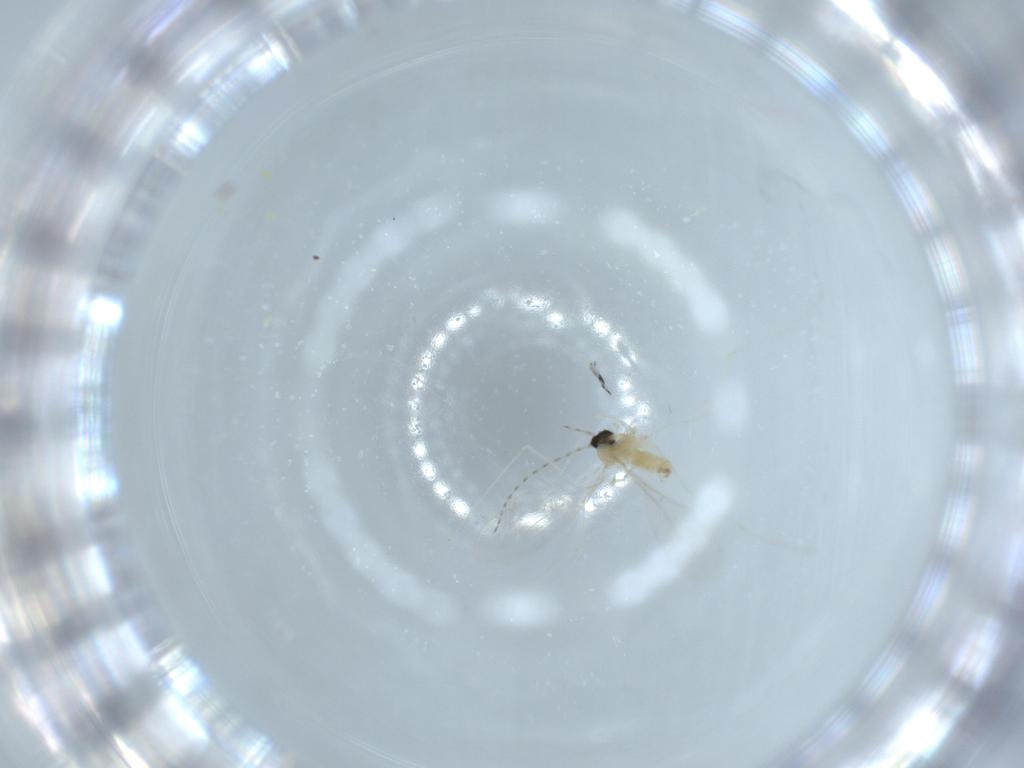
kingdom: Animalia
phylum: Arthropoda
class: Insecta
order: Diptera
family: Cecidomyiidae
